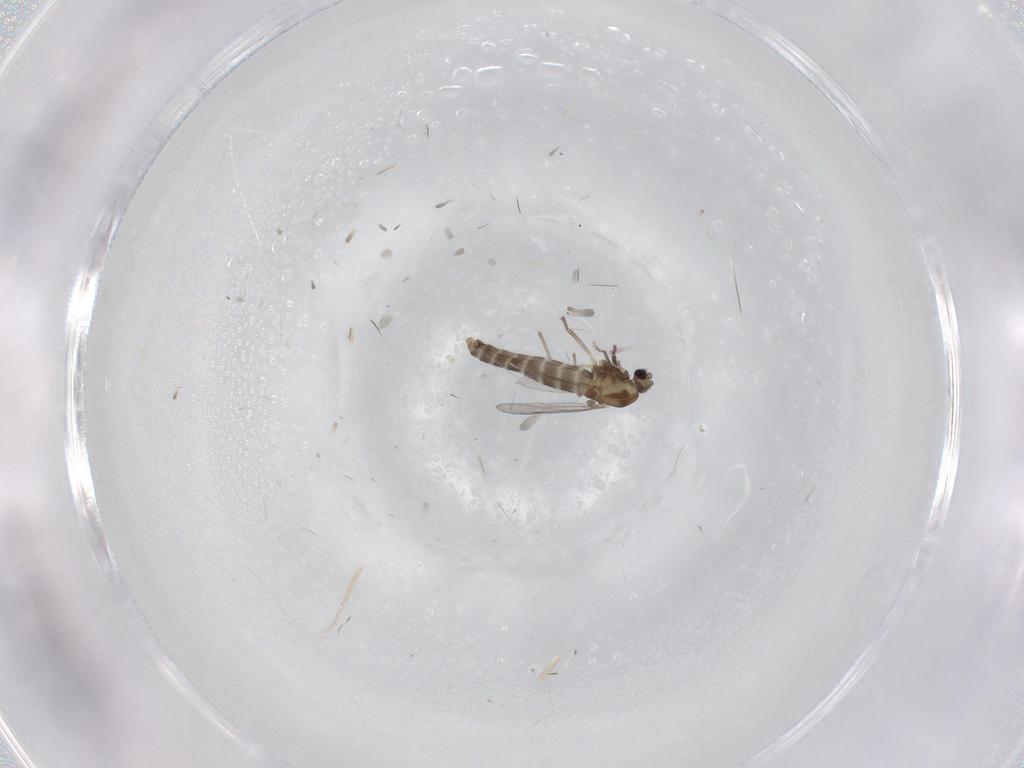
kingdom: Animalia
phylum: Arthropoda
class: Insecta
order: Diptera
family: Chironomidae
